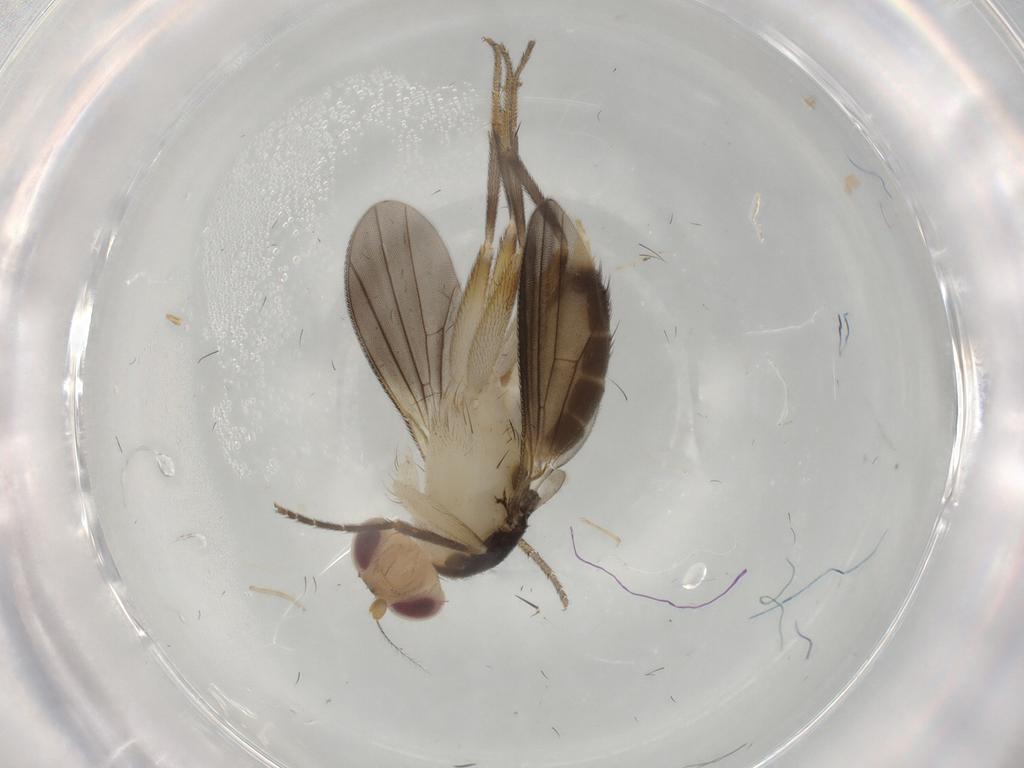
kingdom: Animalia
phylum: Arthropoda
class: Insecta
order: Diptera
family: Clusiidae
